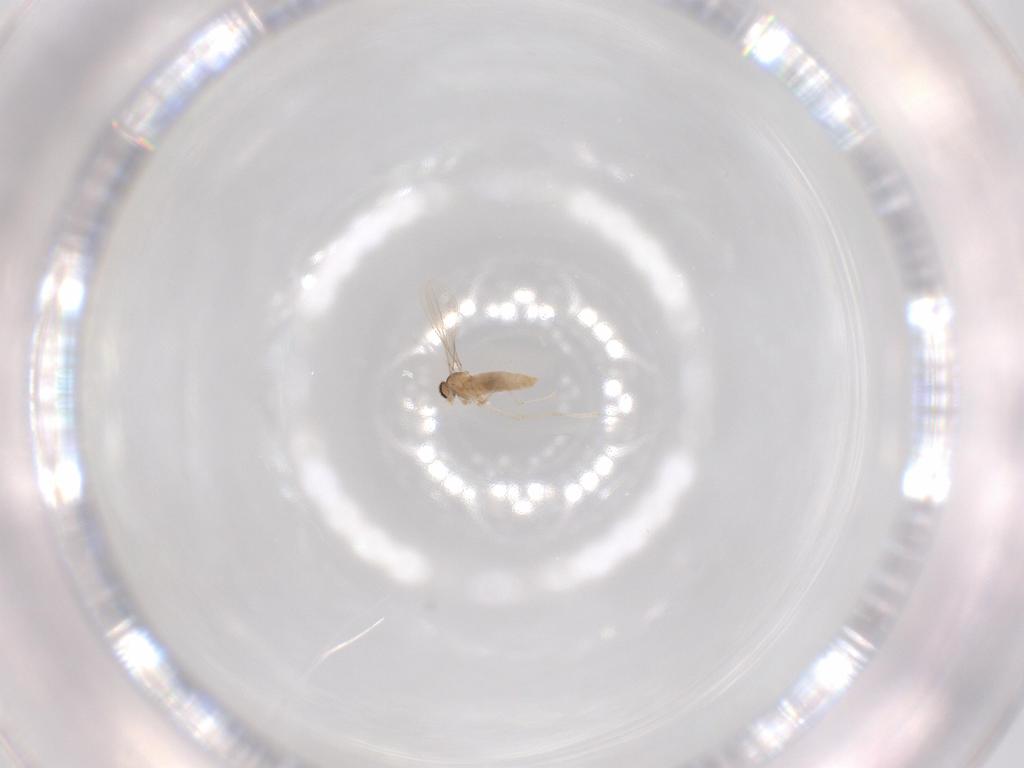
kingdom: Animalia
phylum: Arthropoda
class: Insecta
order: Diptera
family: Cecidomyiidae
